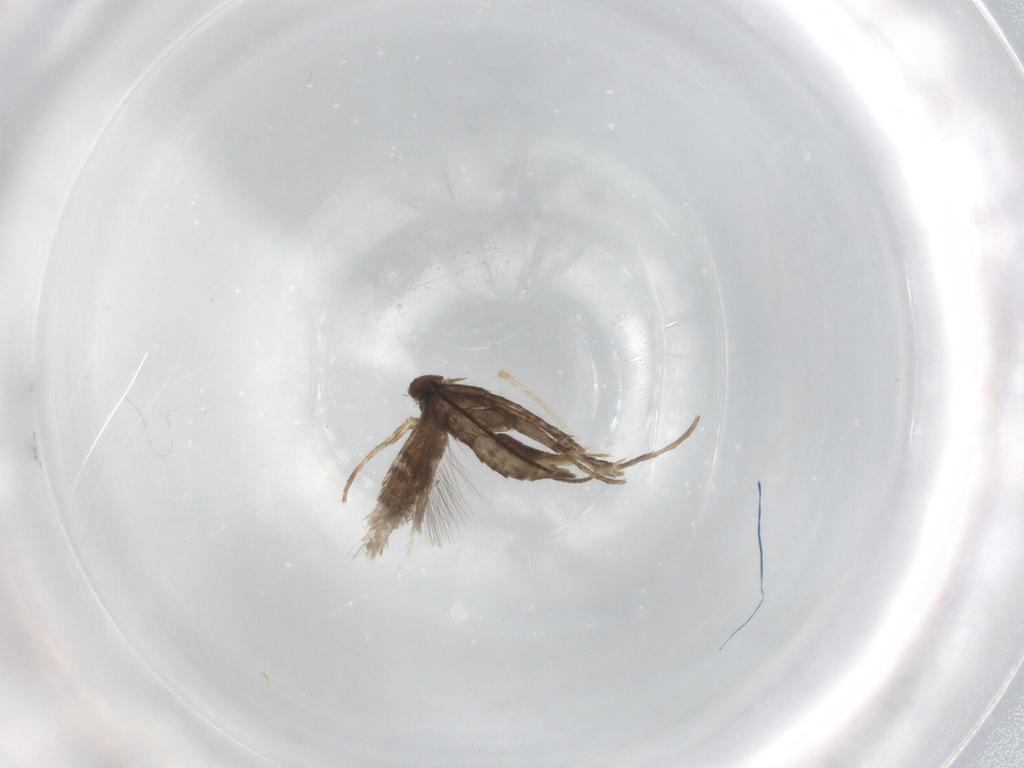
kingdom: Animalia
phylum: Arthropoda
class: Insecta
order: Lepidoptera
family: Gracillariidae
